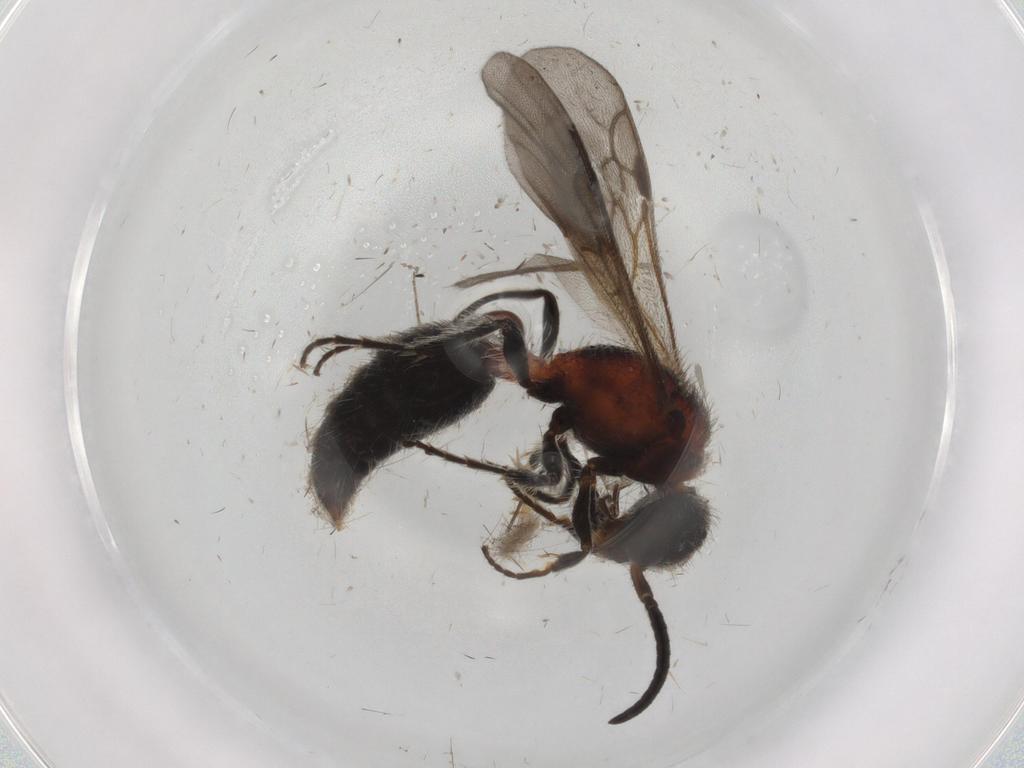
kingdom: Animalia
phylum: Arthropoda
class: Insecta
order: Hymenoptera
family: Mutillidae
